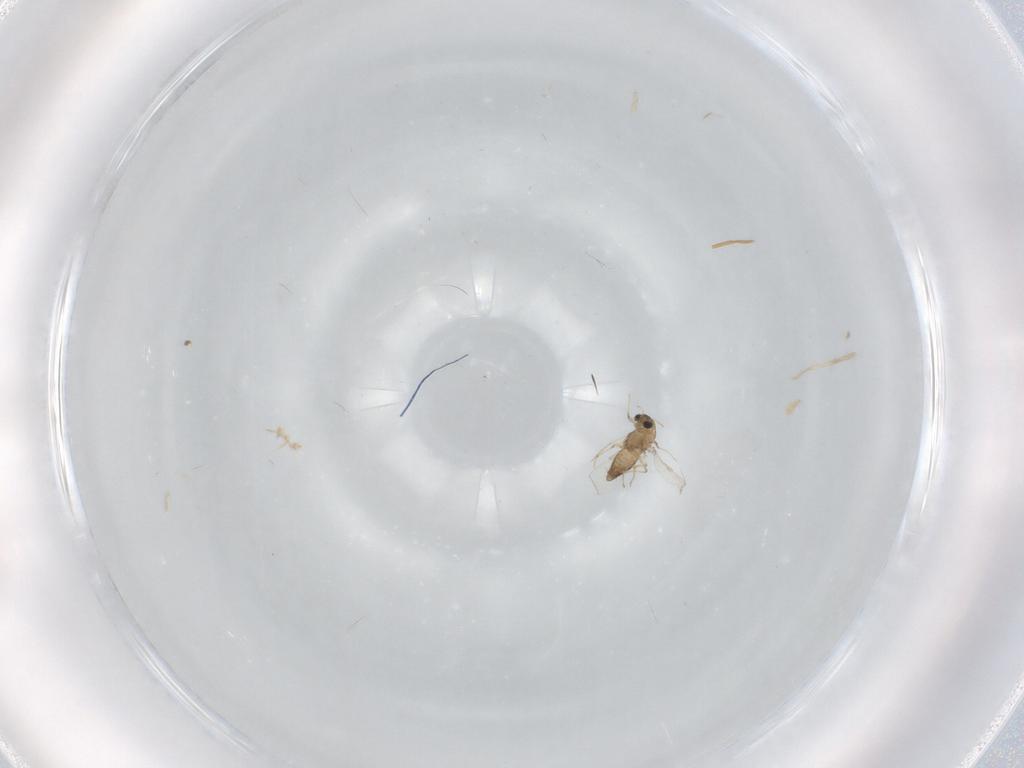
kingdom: Animalia
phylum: Arthropoda
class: Insecta
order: Diptera
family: Chironomidae
